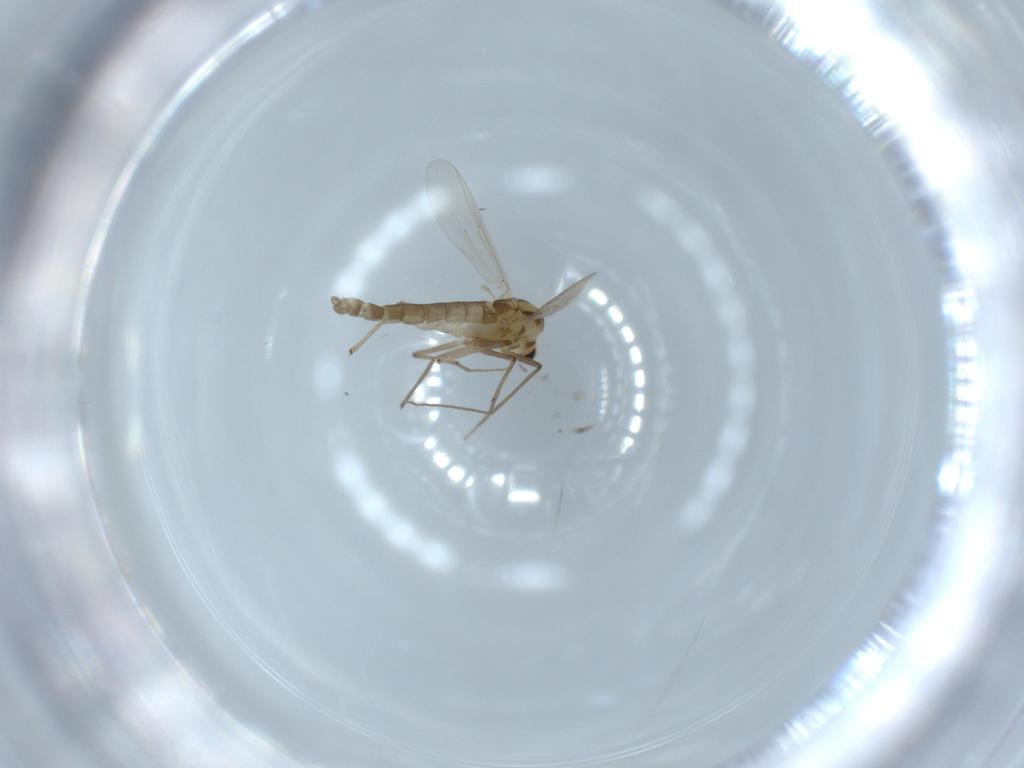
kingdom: Animalia
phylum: Arthropoda
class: Insecta
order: Diptera
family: Chironomidae
